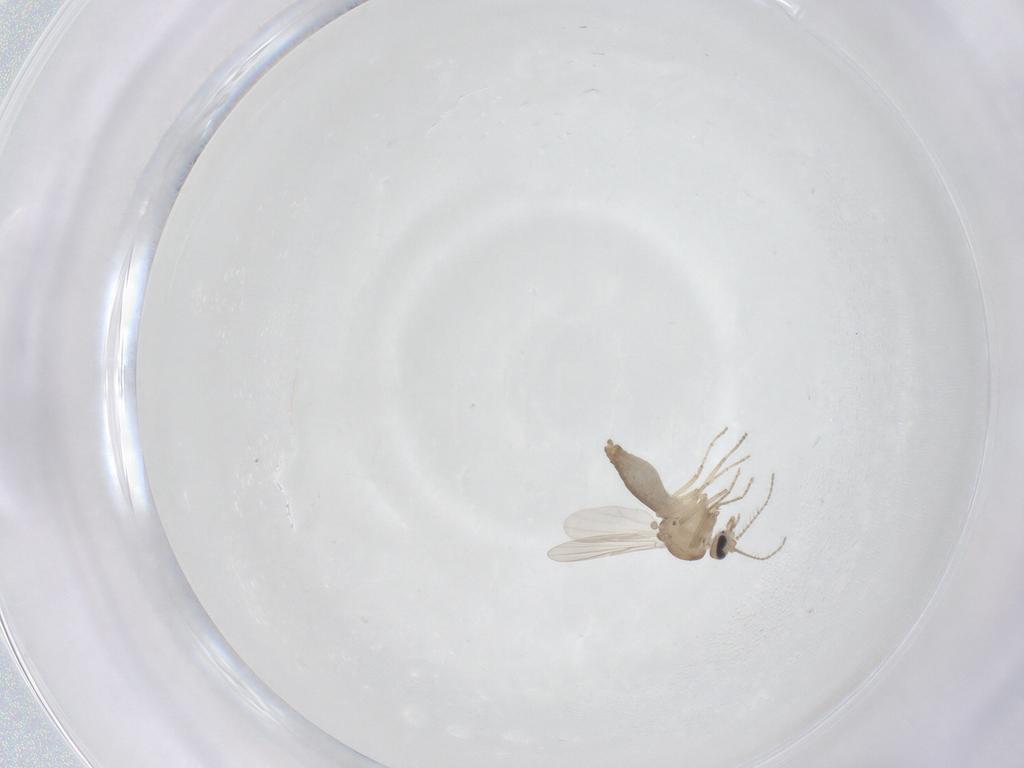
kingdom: Animalia
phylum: Arthropoda
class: Insecta
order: Diptera
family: Ceratopogonidae
